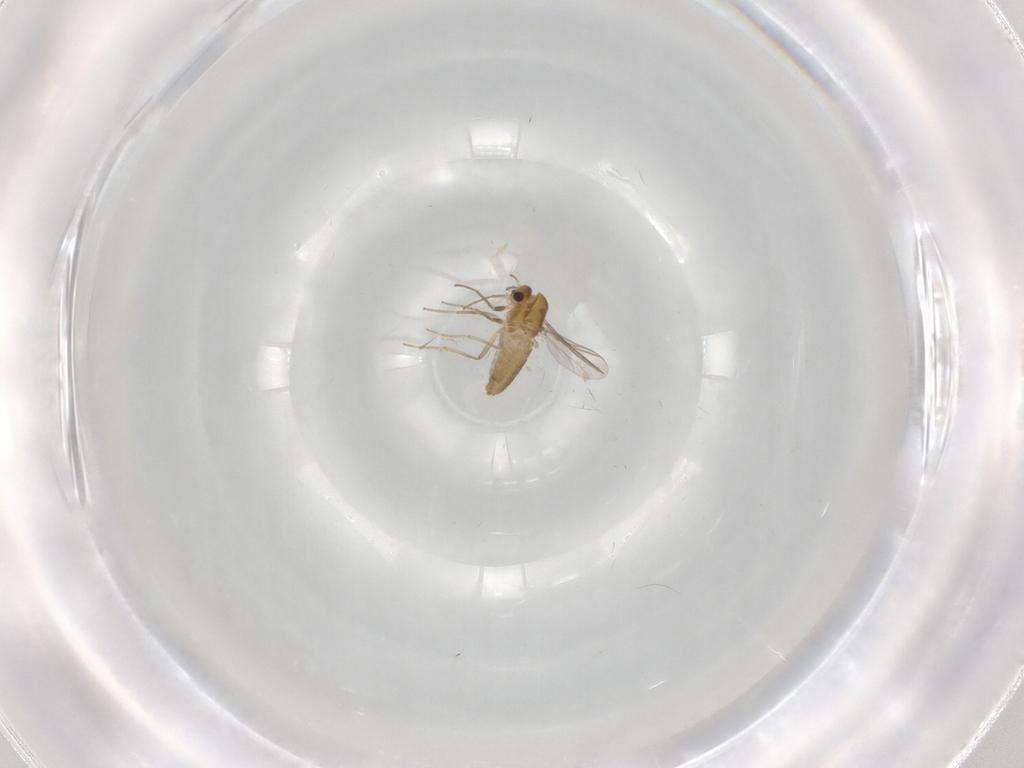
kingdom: Animalia
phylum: Arthropoda
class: Insecta
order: Diptera
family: Chironomidae
